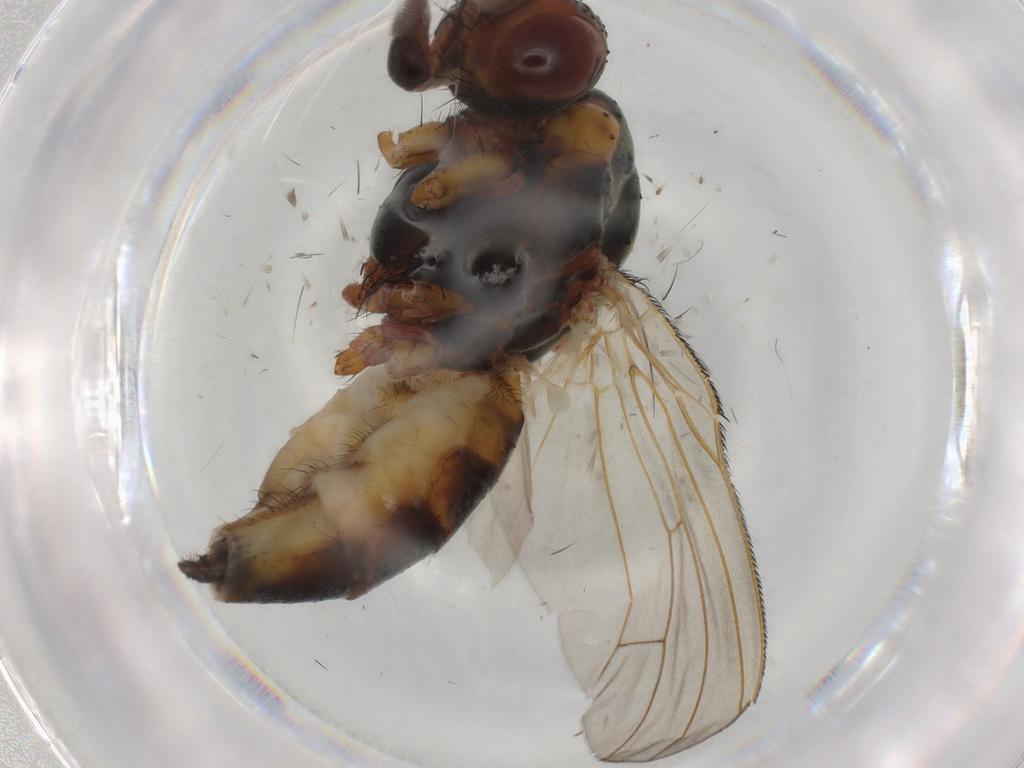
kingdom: Animalia
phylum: Arthropoda
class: Insecta
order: Diptera
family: Anthomyiidae
